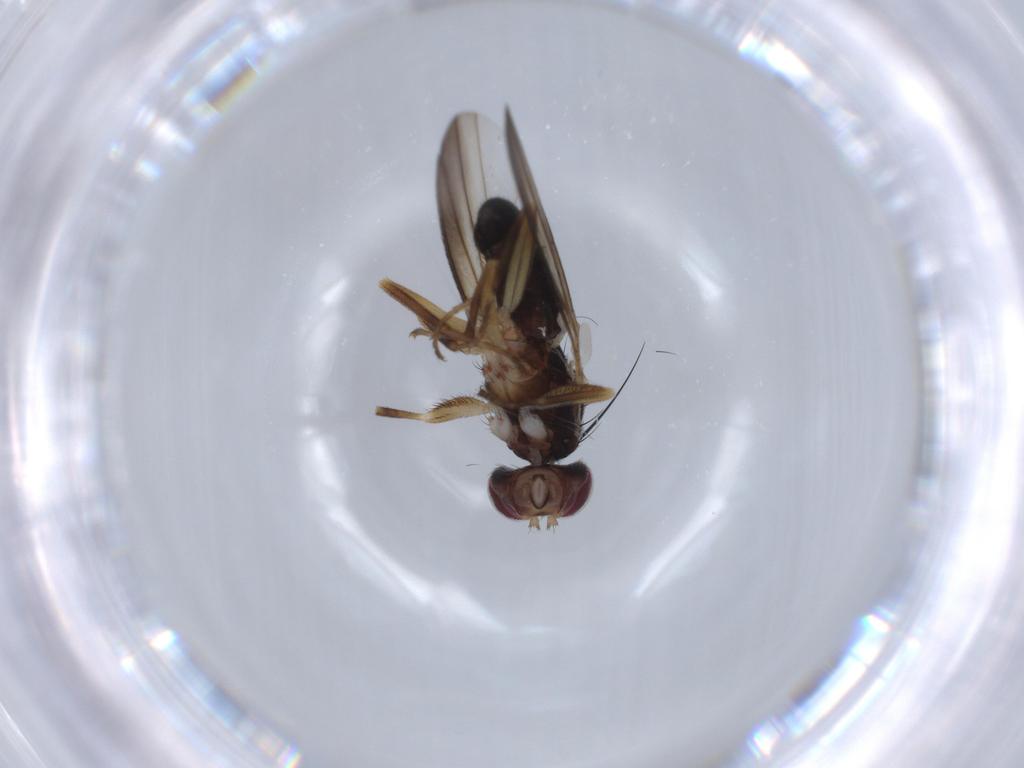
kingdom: Animalia
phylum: Arthropoda
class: Insecta
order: Diptera
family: Clusiidae
